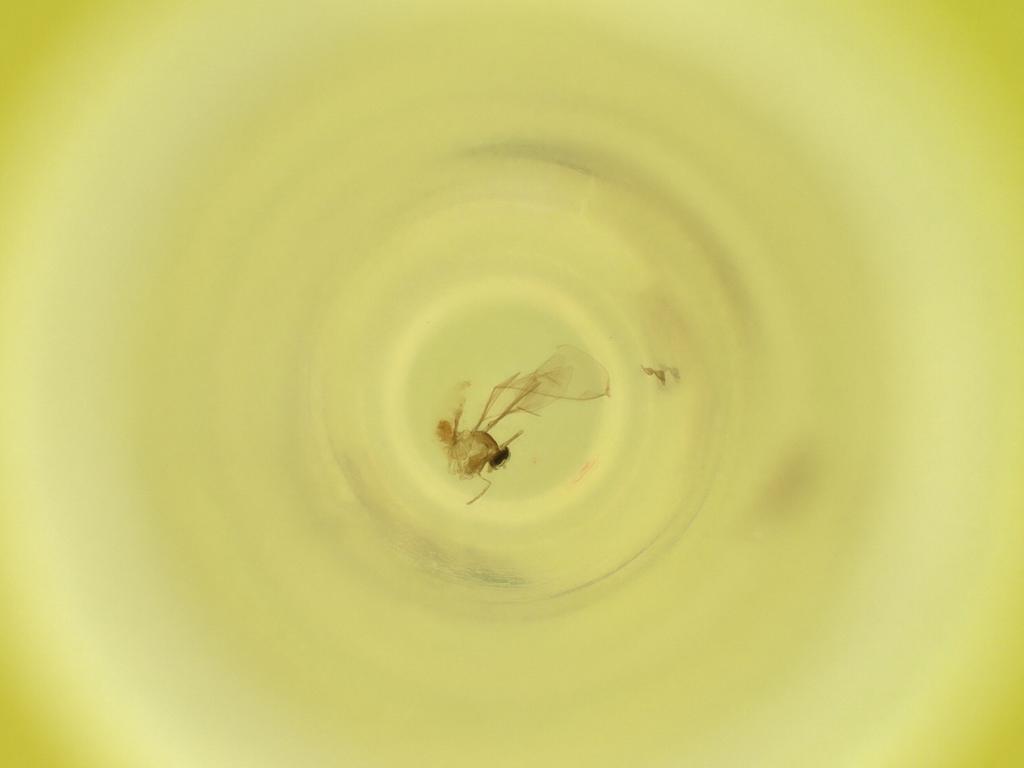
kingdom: Animalia
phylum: Arthropoda
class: Insecta
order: Diptera
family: Cecidomyiidae
